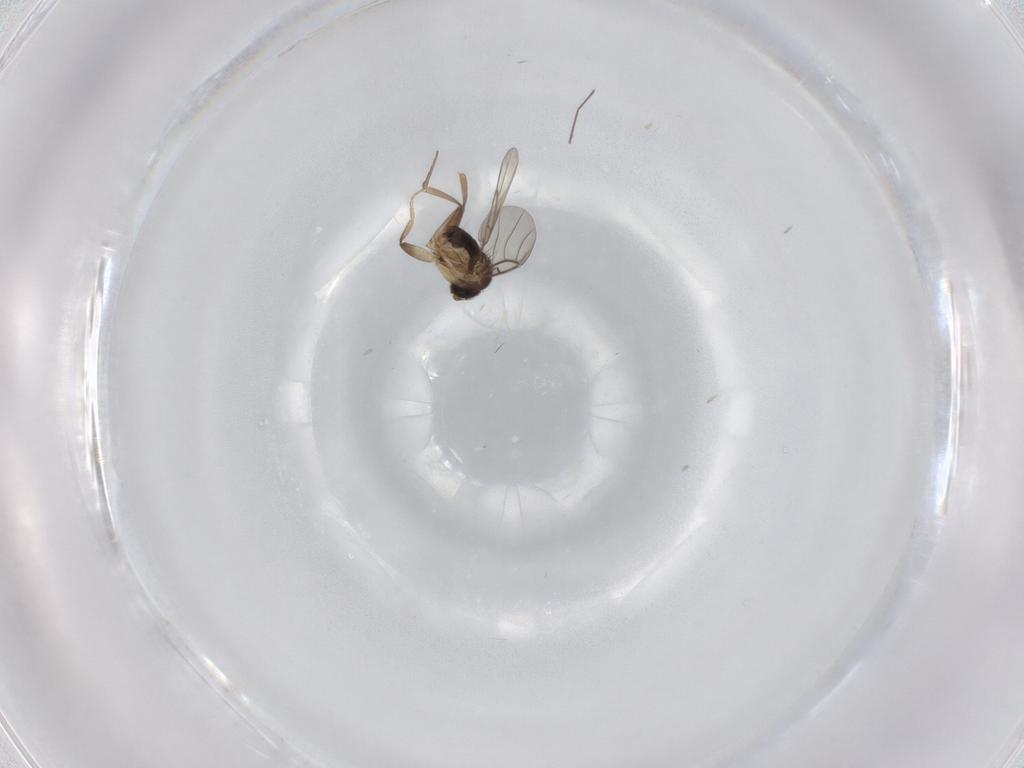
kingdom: Animalia
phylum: Arthropoda
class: Insecta
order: Diptera
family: Phoridae
